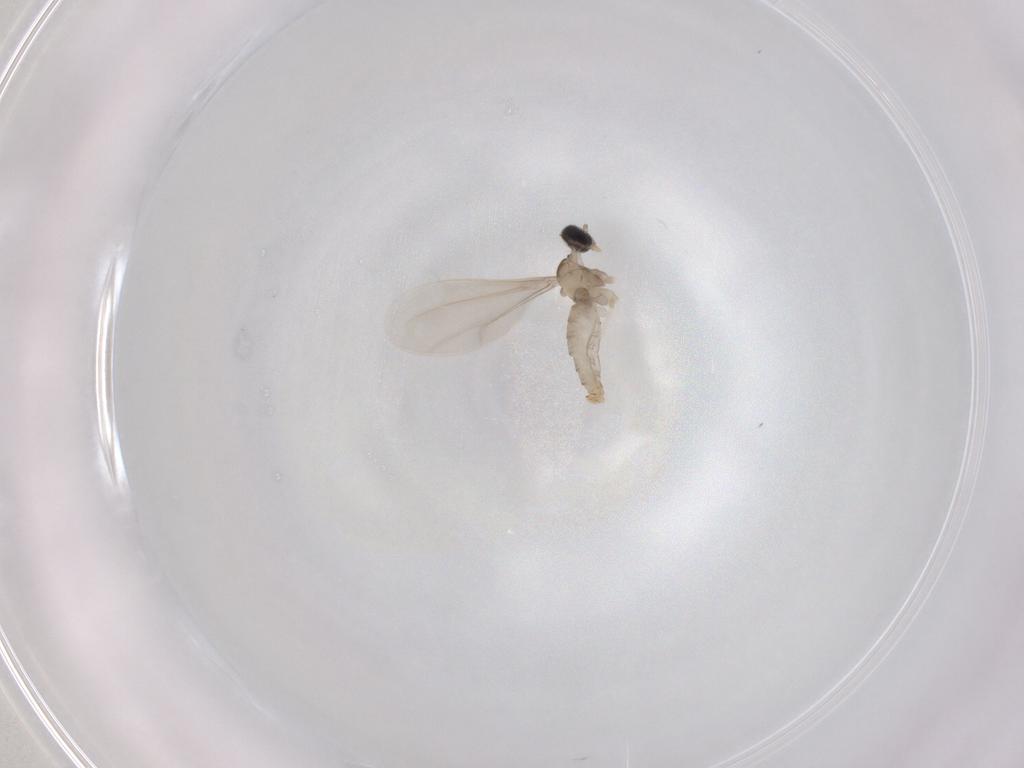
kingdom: Animalia
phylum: Arthropoda
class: Insecta
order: Diptera
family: Cecidomyiidae
